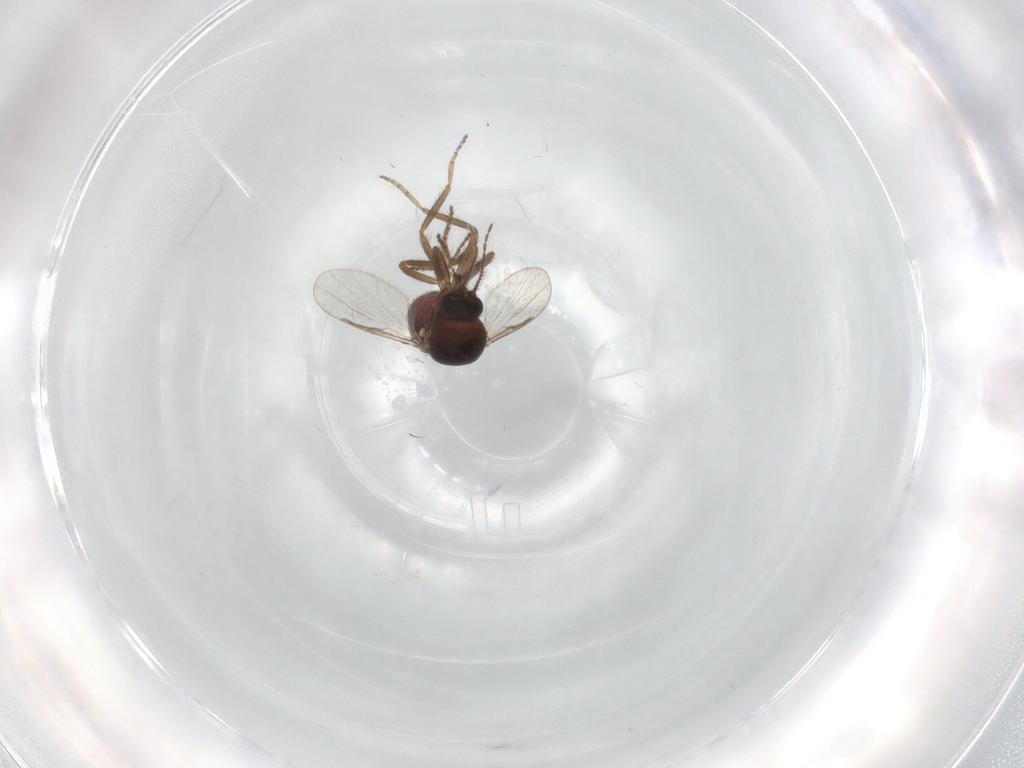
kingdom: Animalia
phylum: Arthropoda
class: Insecta
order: Diptera
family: Ceratopogonidae
